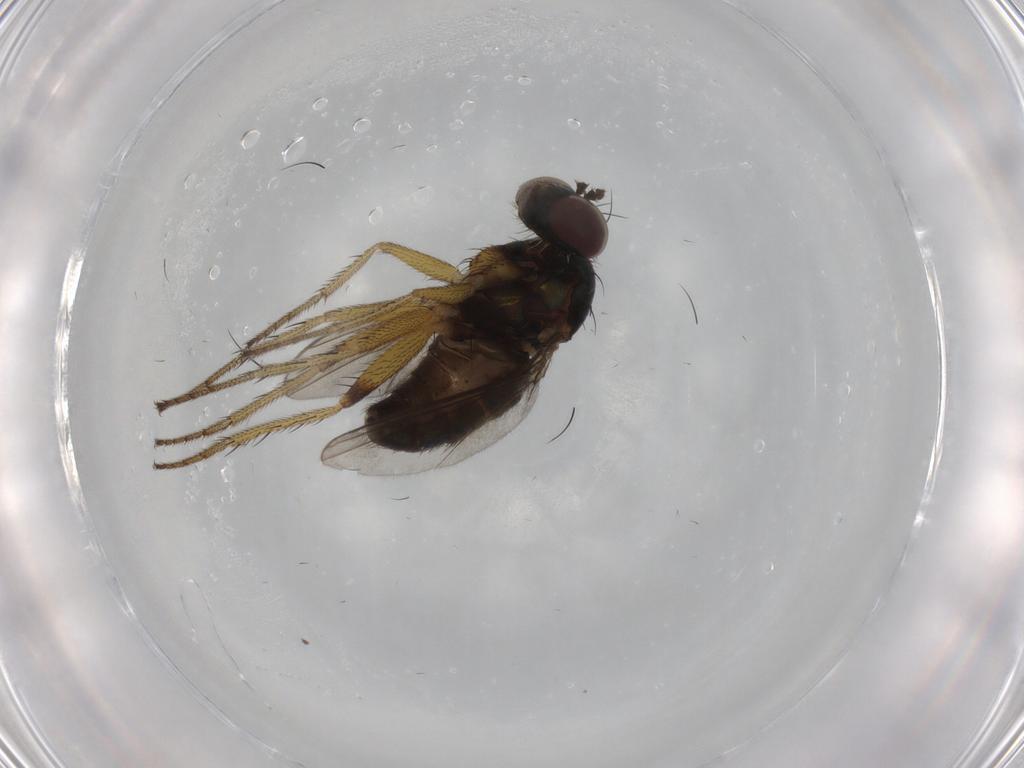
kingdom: Animalia
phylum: Arthropoda
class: Insecta
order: Diptera
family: Dolichopodidae
